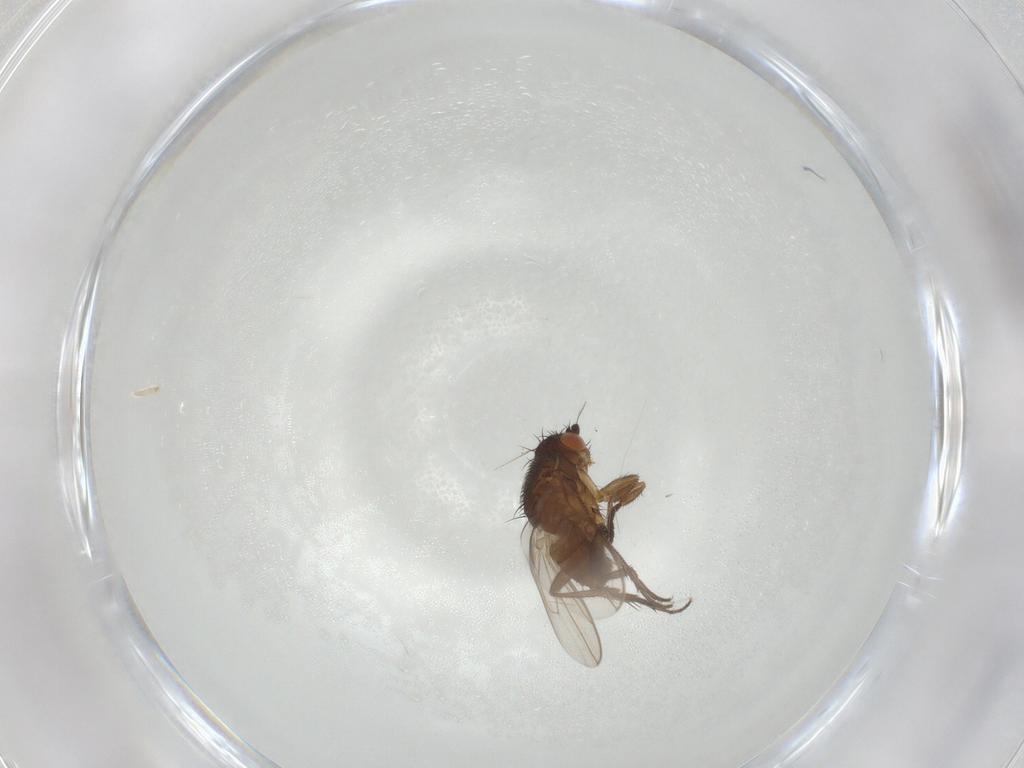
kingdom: Animalia
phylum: Arthropoda
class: Insecta
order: Diptera
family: Sphaeroceridae
